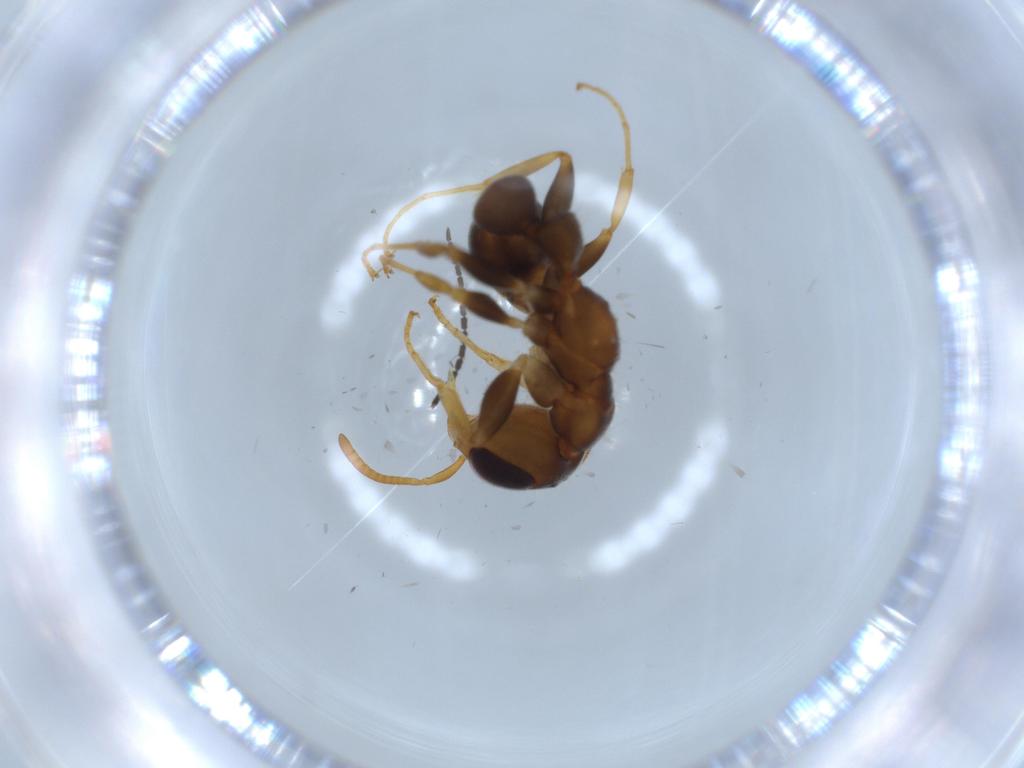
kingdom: Animalia
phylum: Arthropoda
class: Insecta
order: Hymenoptera
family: Formicidae
